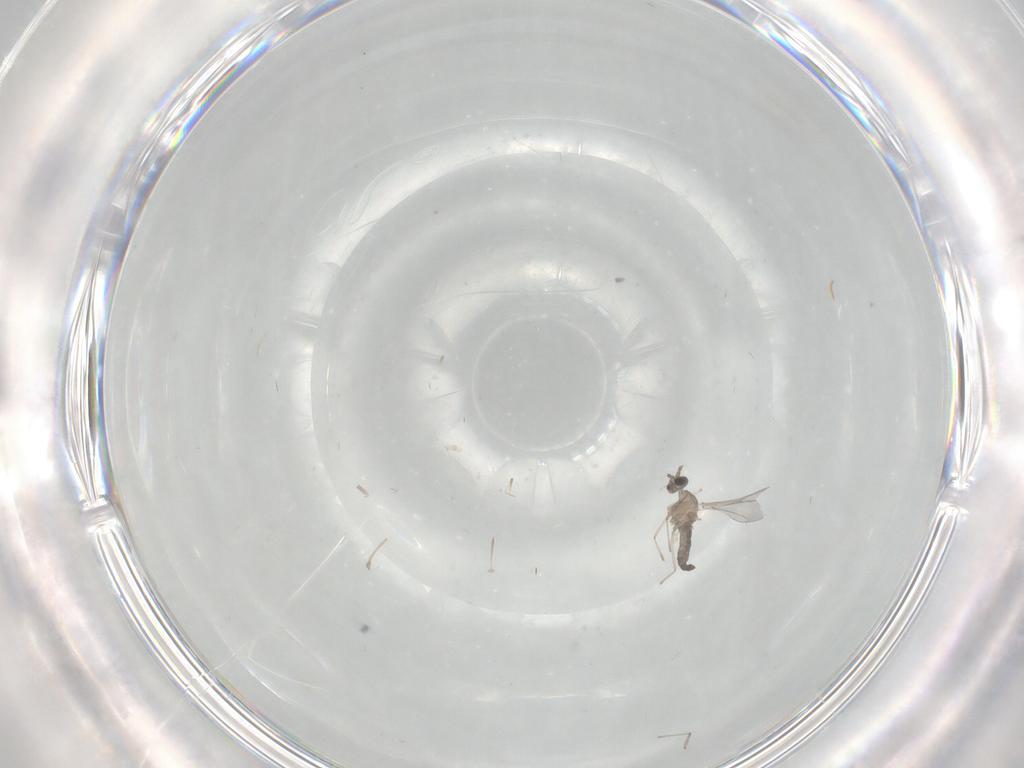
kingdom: Animalia
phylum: Arthropoda
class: Insecta
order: Diptera
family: Cecidomyiidae
